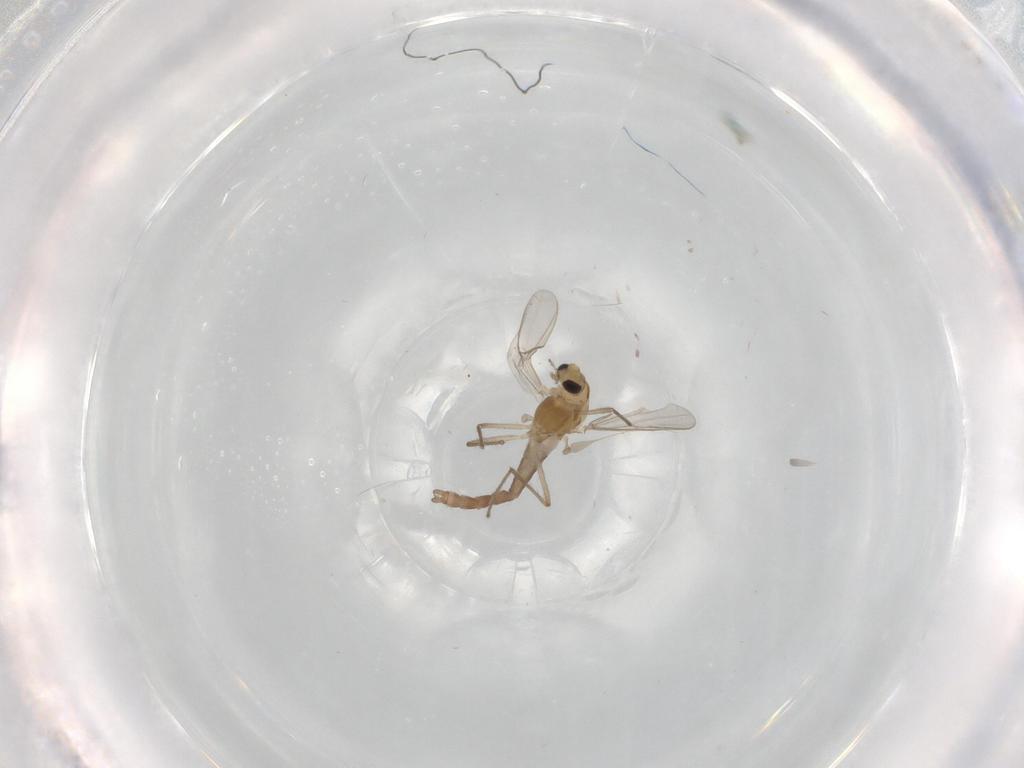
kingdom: Animalia
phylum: Arthropoda
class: Insecta
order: Diptera
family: Chironomidae
